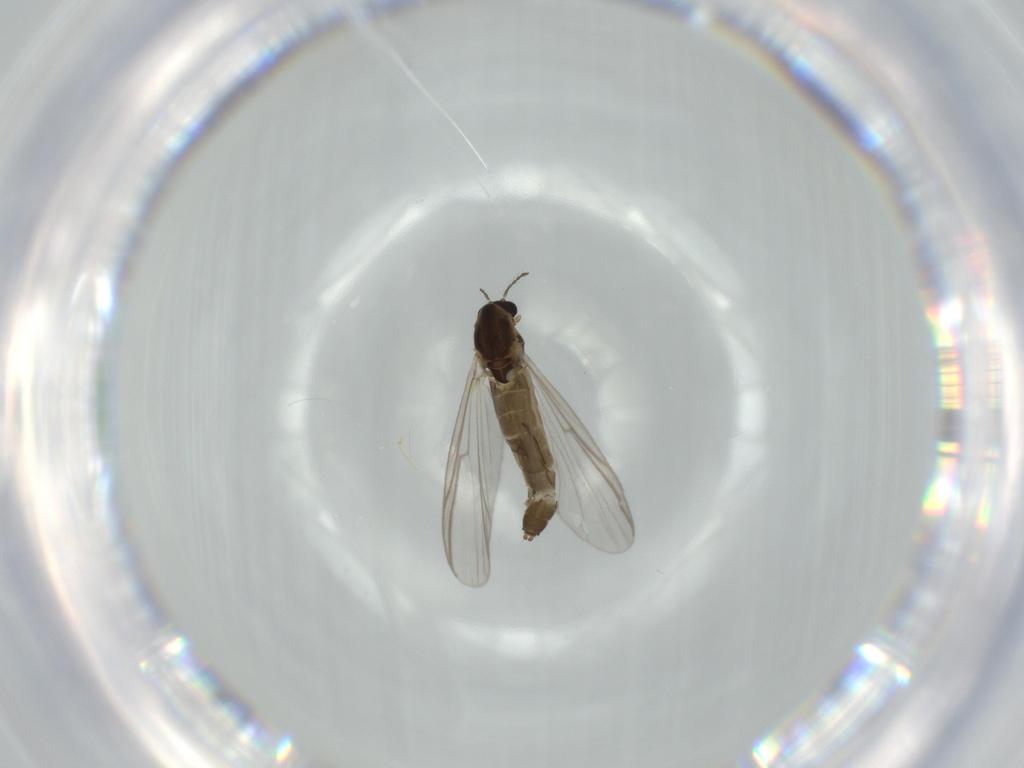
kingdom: Animalia
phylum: Arthropoda
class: Insecta
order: Diptera
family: Chironomidae
